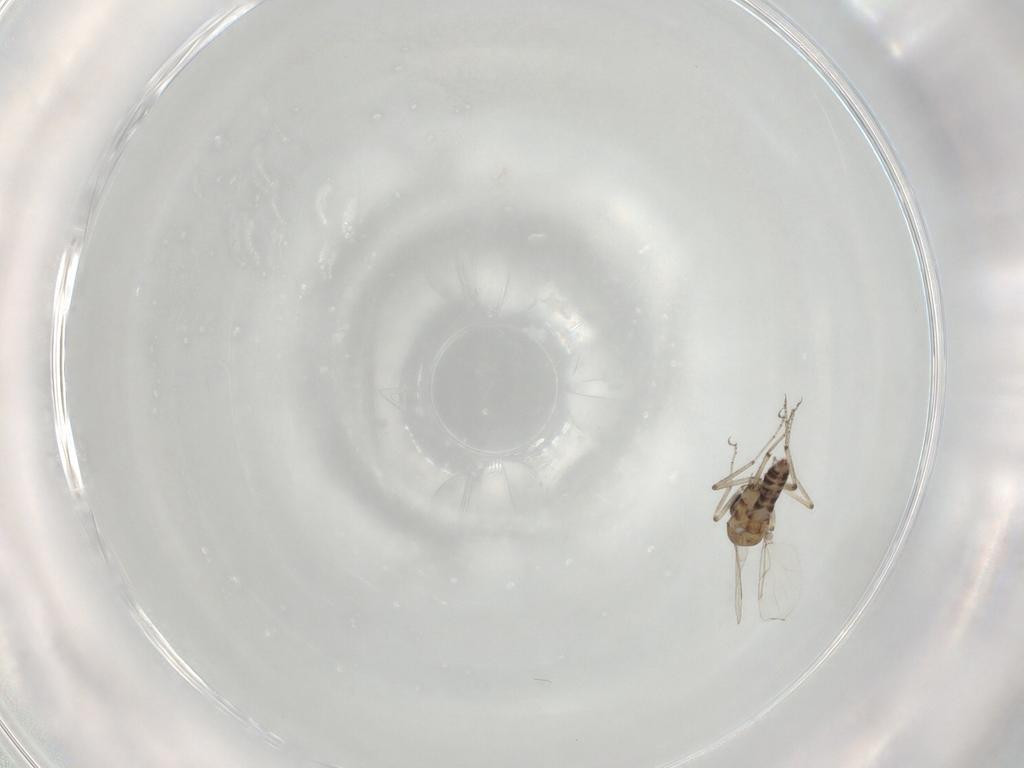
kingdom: Animalia
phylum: Arthropoda
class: Insecta
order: Diptera
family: Ceratopogonidae
